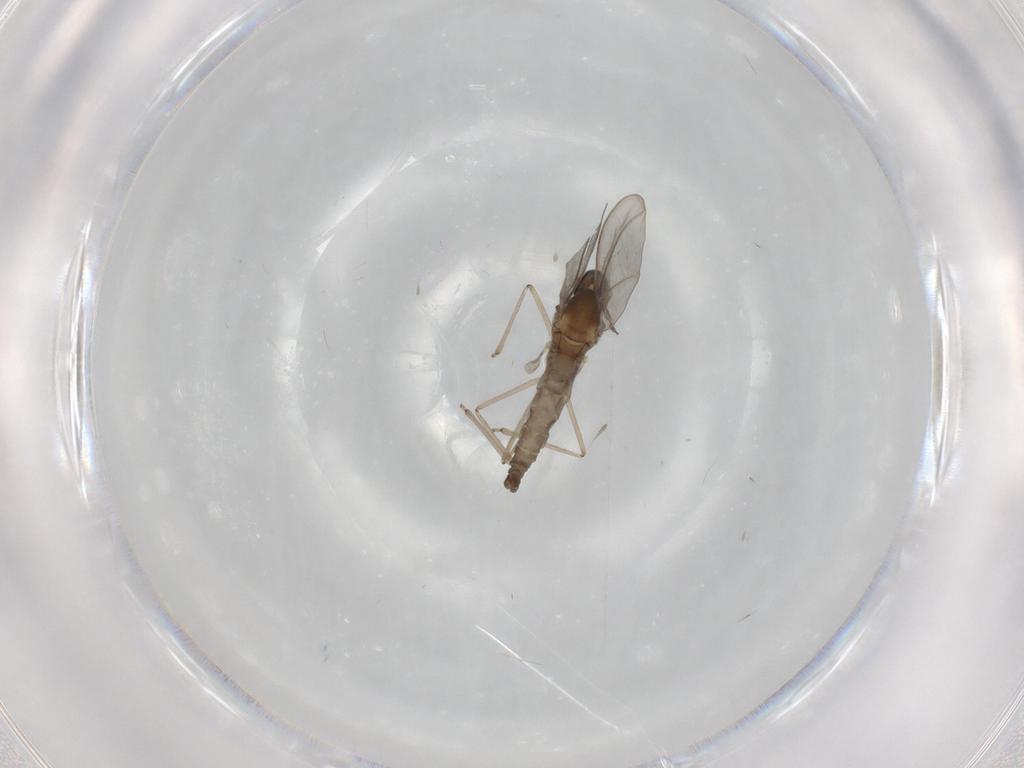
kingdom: Animalia
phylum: Arthropoda
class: Insecta
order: Diptera
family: Cecidomyiidae
